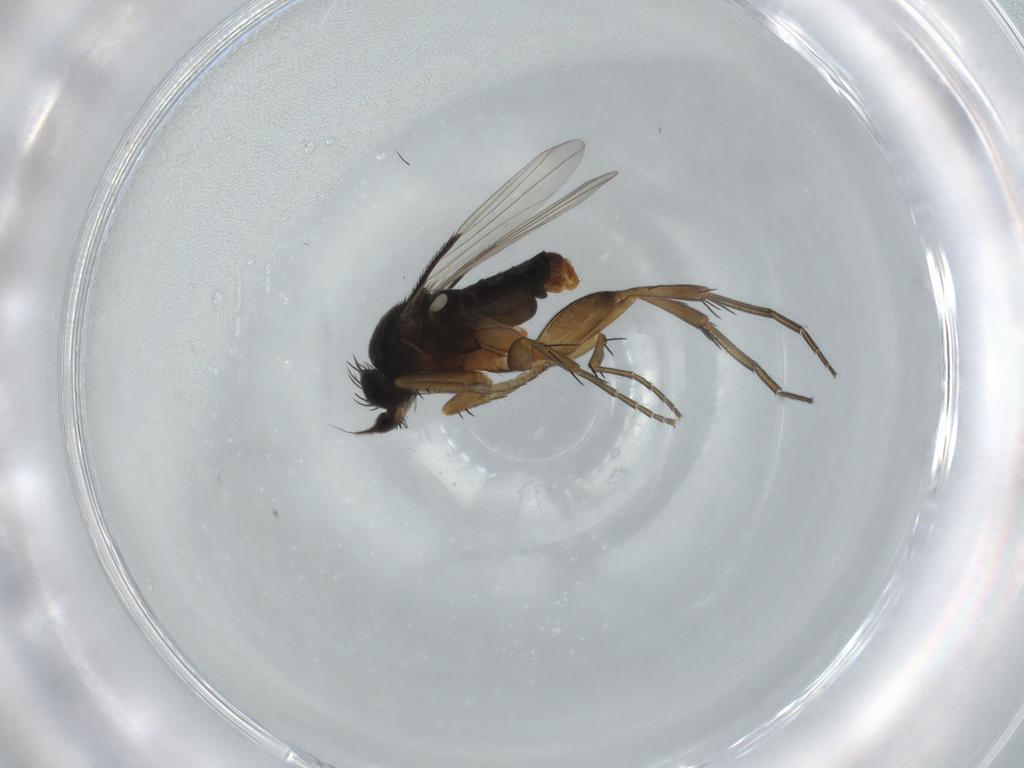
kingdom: Animalia
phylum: Arthropoda
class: Insecta
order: Diptera
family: Phoridae
